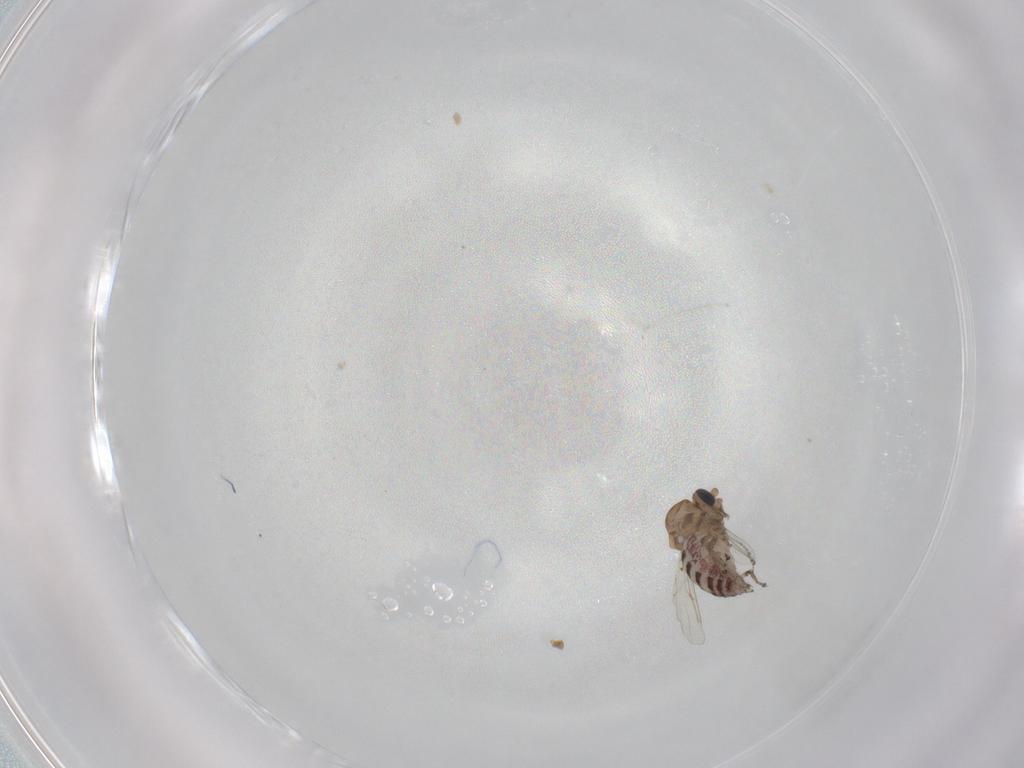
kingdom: Animalia
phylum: Arthropoda
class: Insecta
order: Diptera
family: Ceratopogonidae
